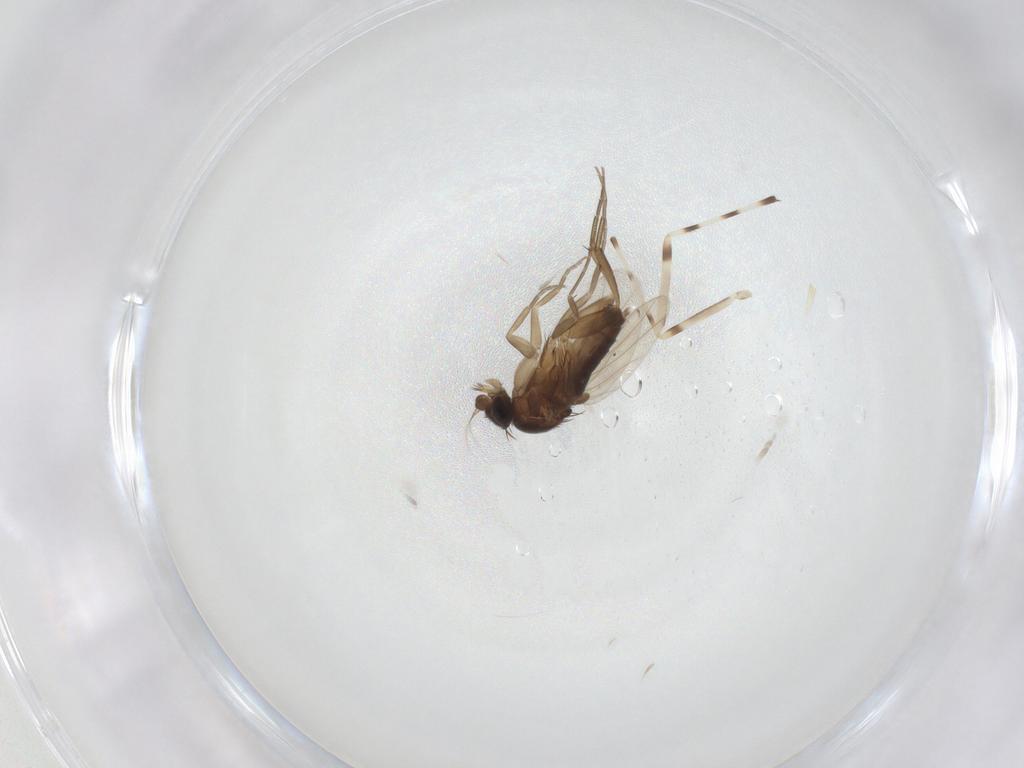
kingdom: Animalia
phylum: Arthropoda
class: Insecta
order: Diptera
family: Phoridae
